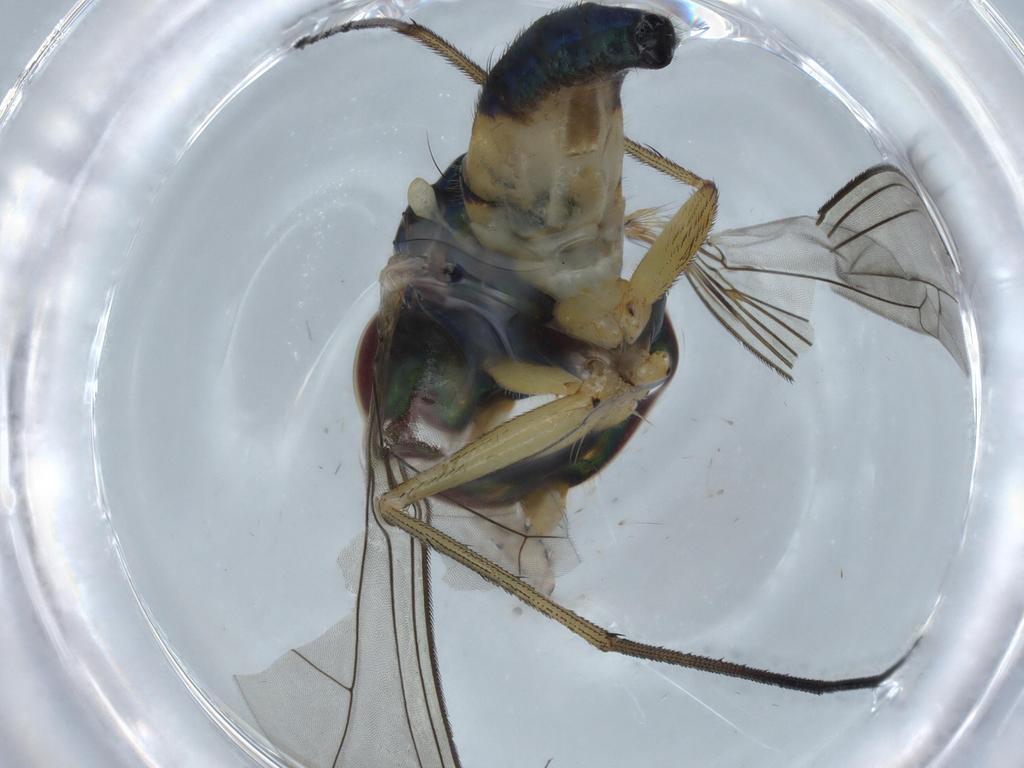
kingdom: Animalia
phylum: Arthropoda
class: Insecta
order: Diptera
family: Dolichopodidae
